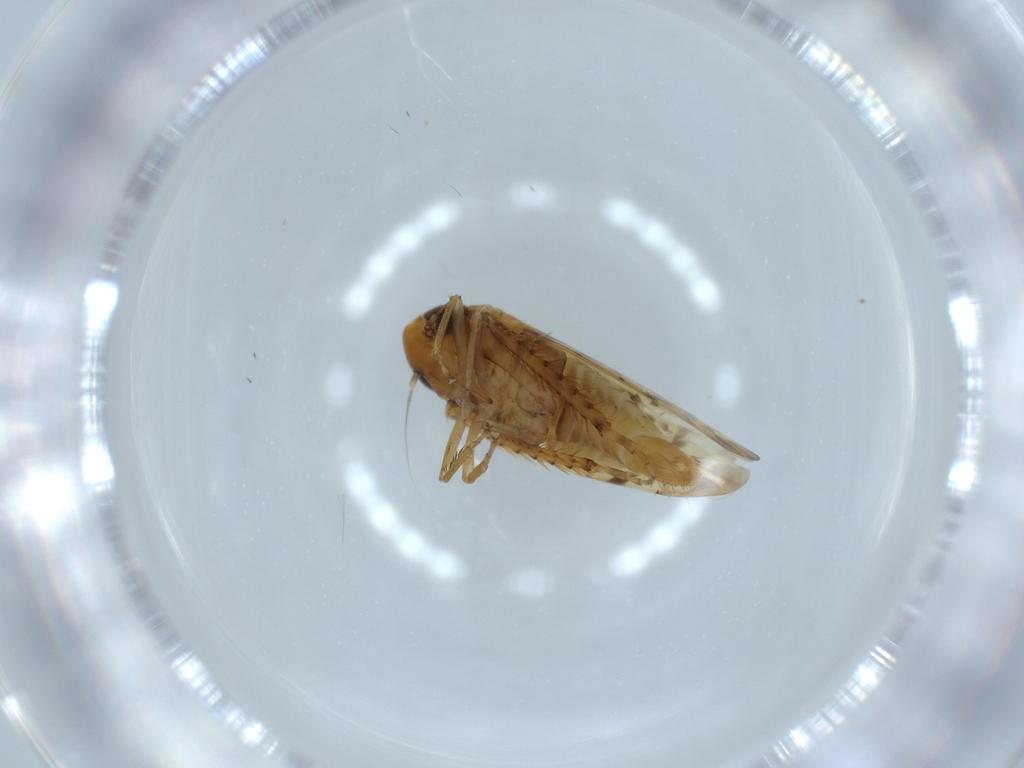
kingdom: Animalia
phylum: Arthropoda
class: Insecta
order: Hemiptera
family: Cicadellidae
